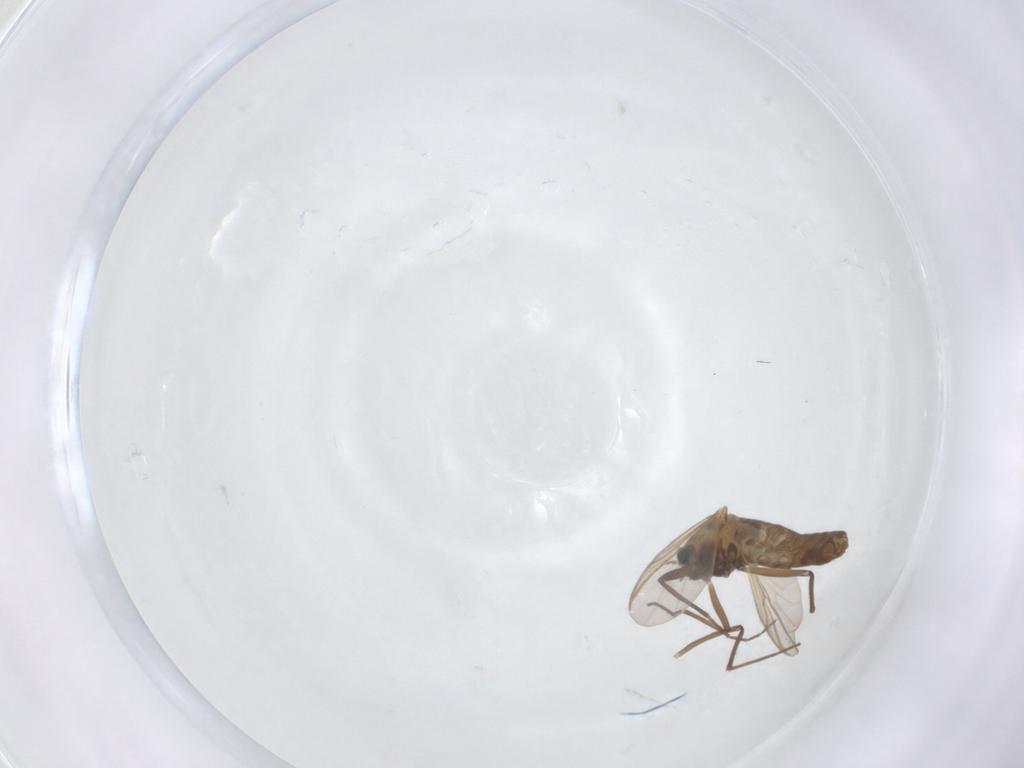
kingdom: Animalia
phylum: Arthropoda
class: Insecta
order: Diptera
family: Chironomidae
